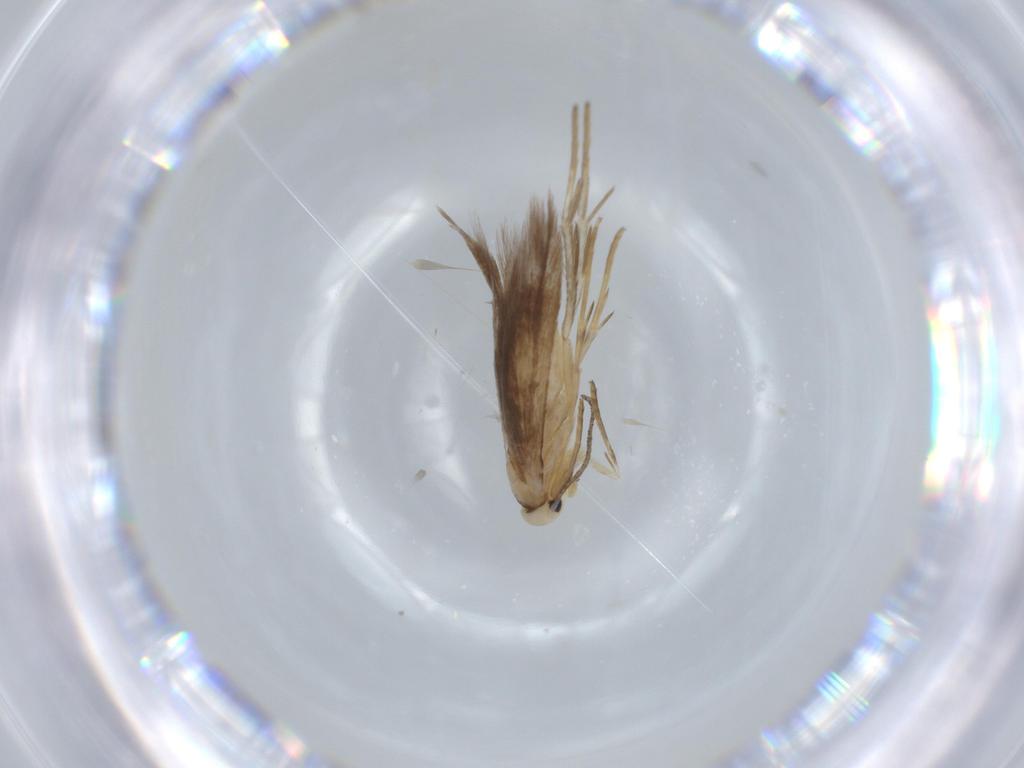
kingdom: Animalia
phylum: Arthropoda
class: Insecta
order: Lepidoptera
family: Schreckensteiniidae
